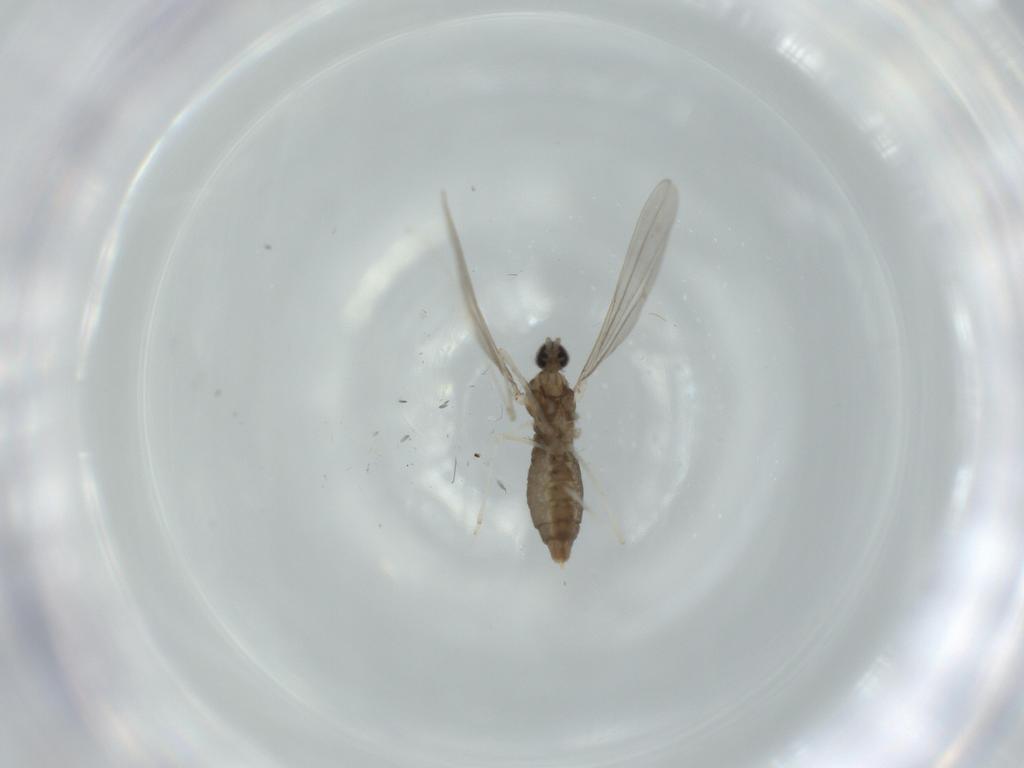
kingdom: Animalia
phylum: Arthropoda
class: Insecta
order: Diptera
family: Cecidomyiidae
